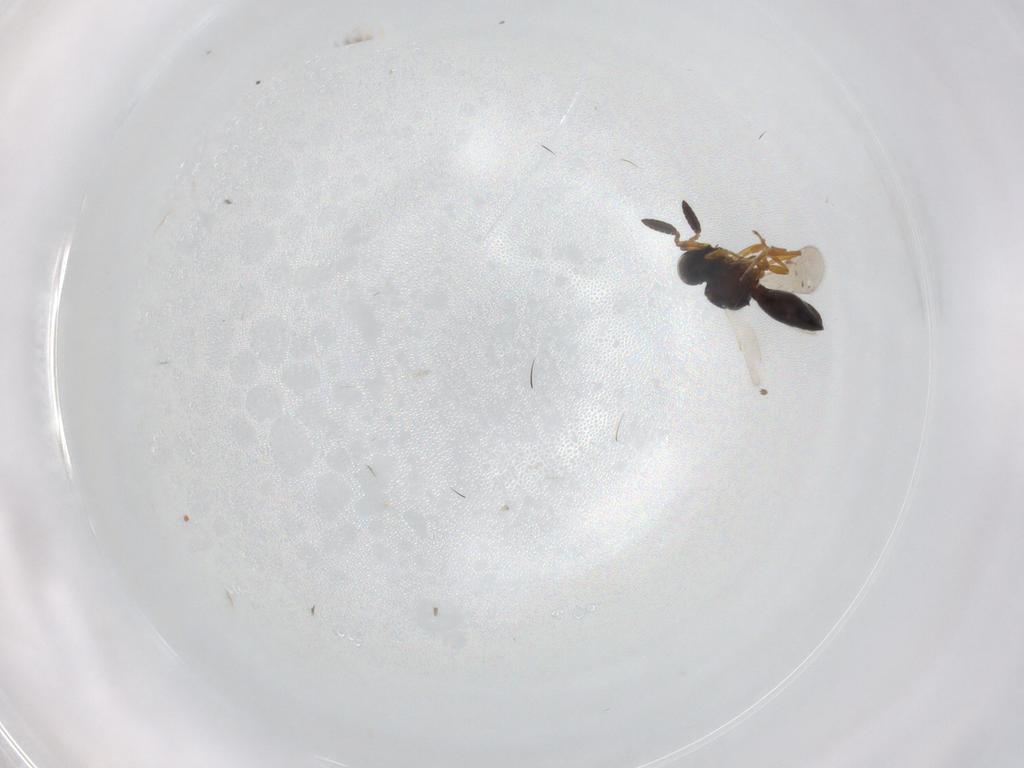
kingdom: Animalia
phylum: Arthropoda
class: Insecta
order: Hymenoptera
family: Scelionidae
